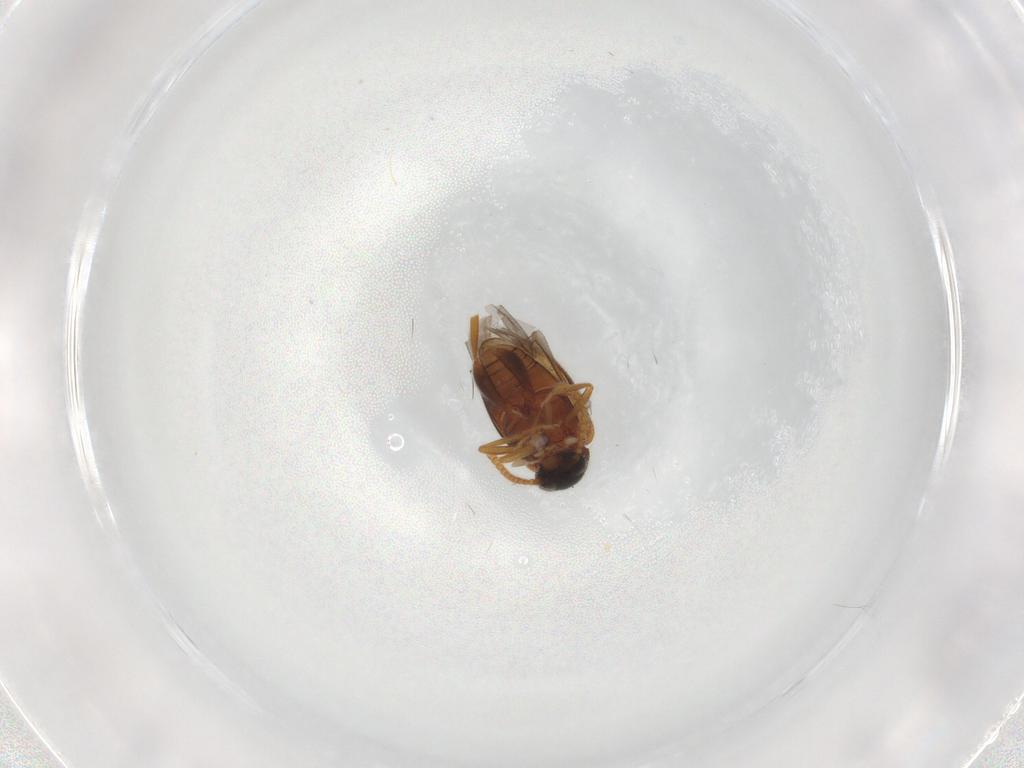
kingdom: Animalia
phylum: Arthropoda
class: Insecta
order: Coleoptera
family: Aderidae
